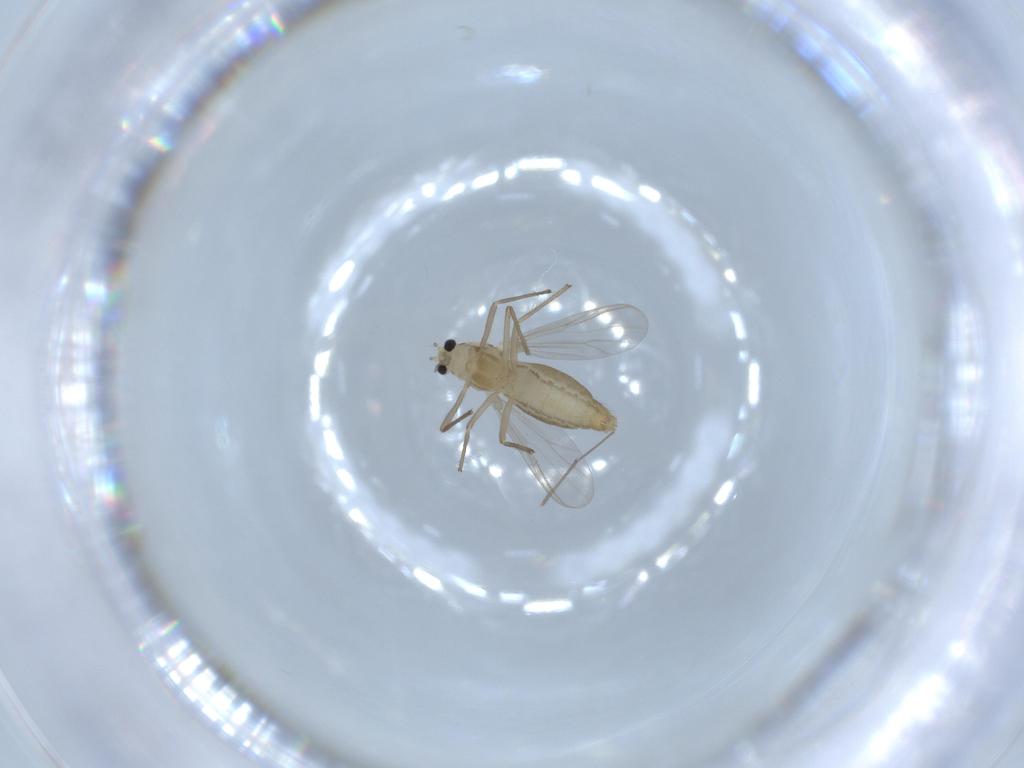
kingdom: Animalia
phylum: Arthropoda
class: Insecta
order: Diptera
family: Chironomidae
